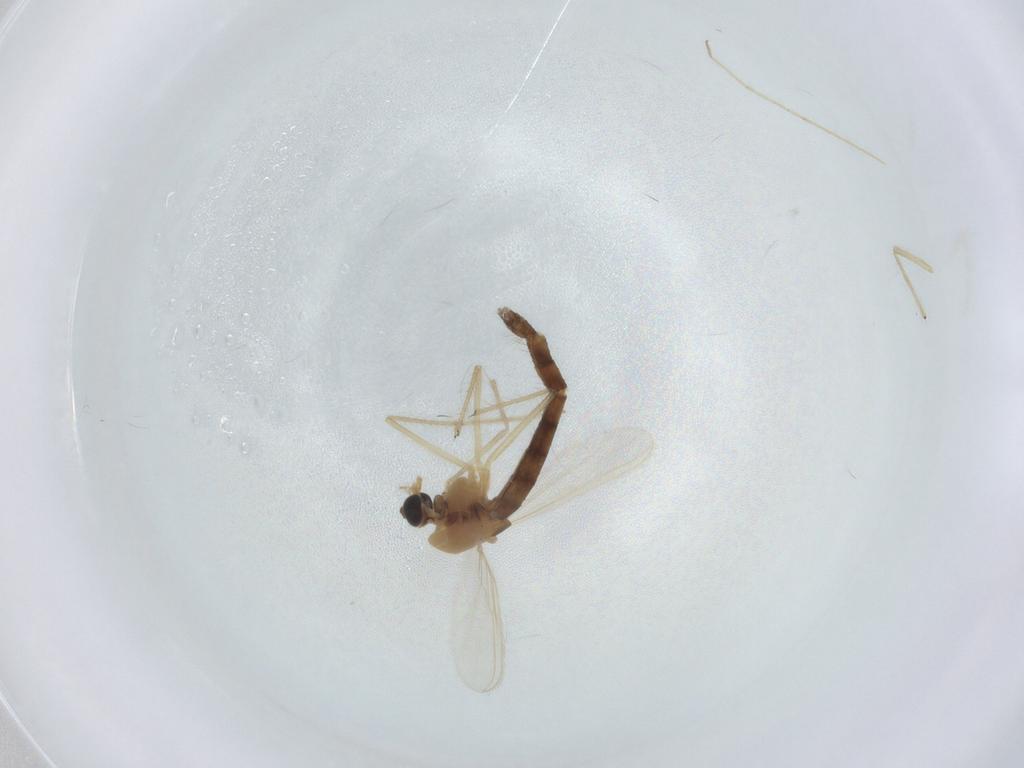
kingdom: Animalia
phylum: Arthropoda
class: Insecta
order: Diptera
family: Chironomidae
